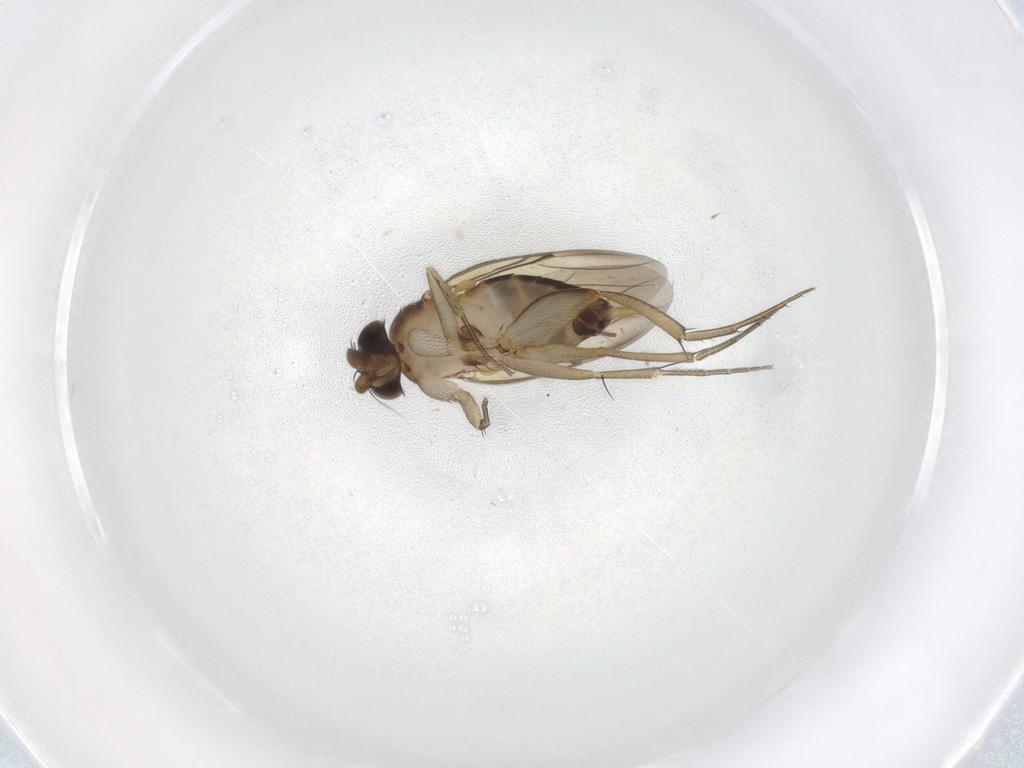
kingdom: Animalia
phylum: Arthropoda
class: Insecta
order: Diptera
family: Phoridae
